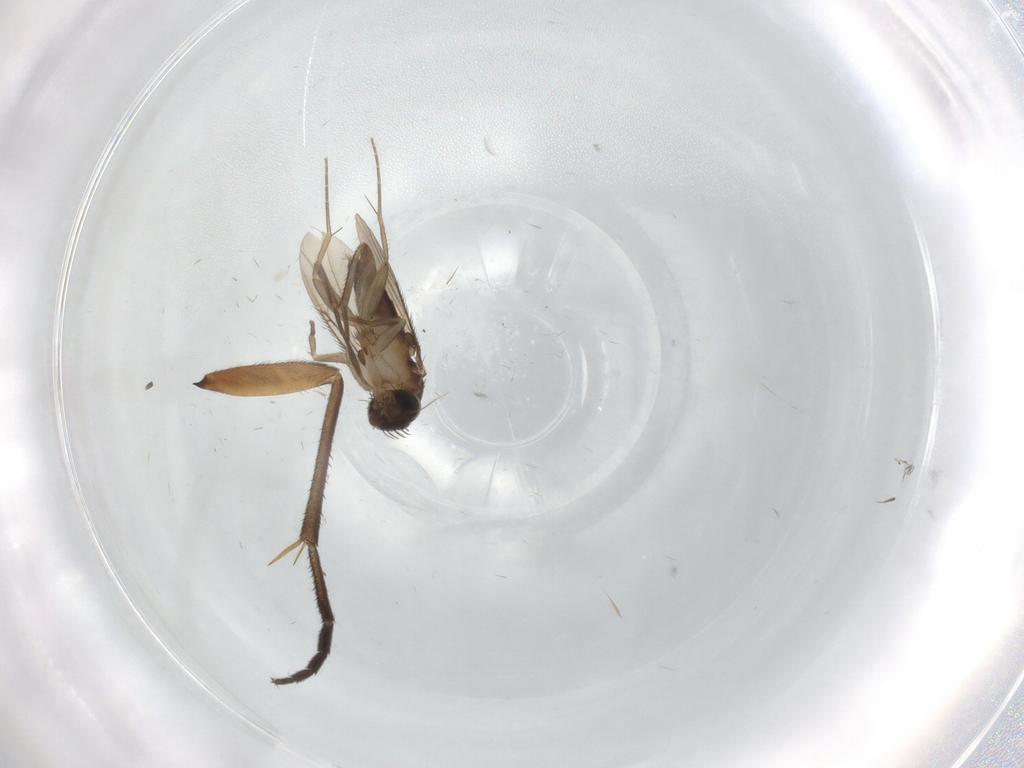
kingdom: Animalia
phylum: Arthropoda
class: Insecta
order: Diptera
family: Phoridae
